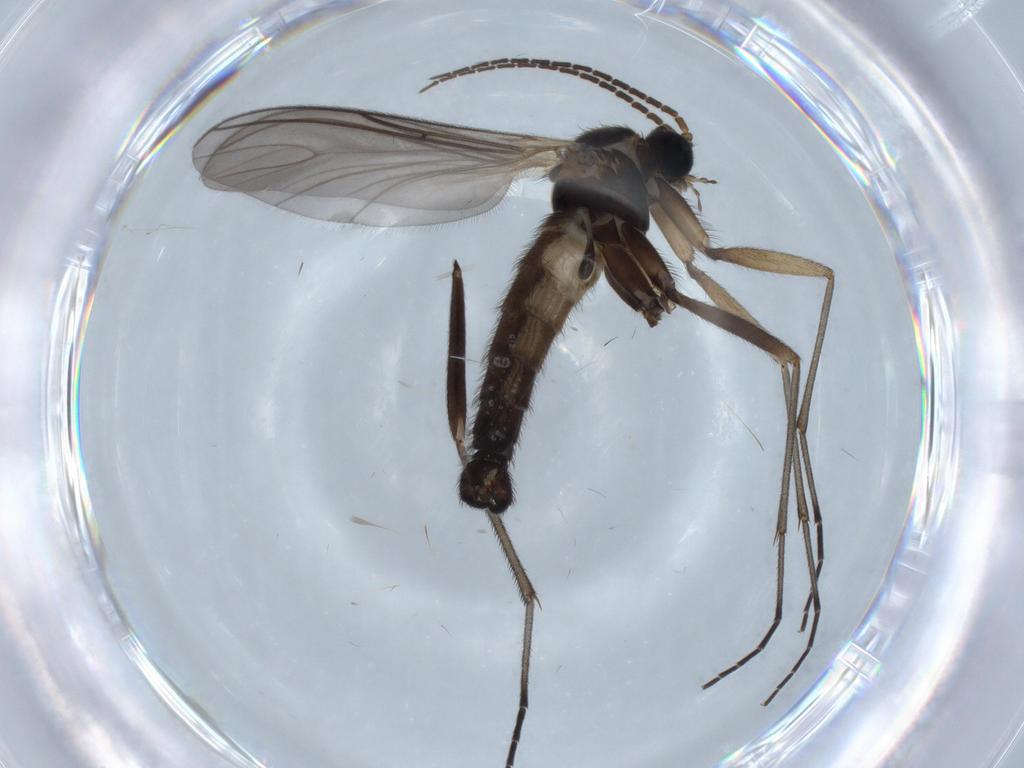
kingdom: Animalia
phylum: Arthropoda
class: Insecta
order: Diptera
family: Sciaridae
